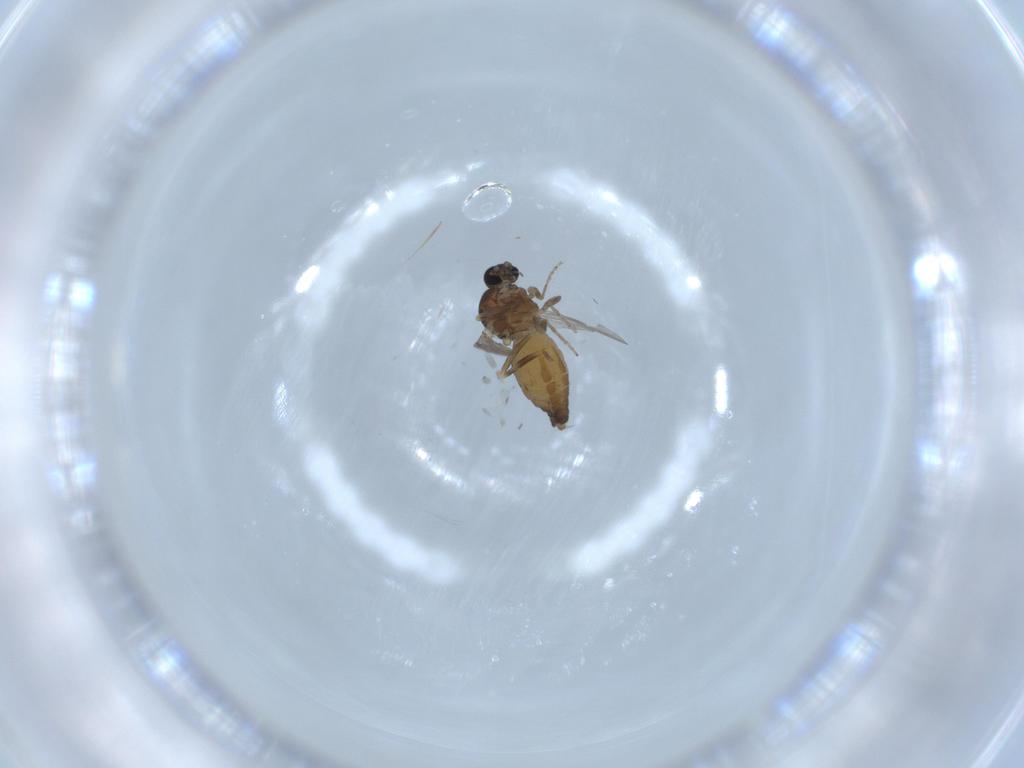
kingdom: Animalia
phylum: Arthropoda
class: Insecta
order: Diptera
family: Ceratopogonidae
